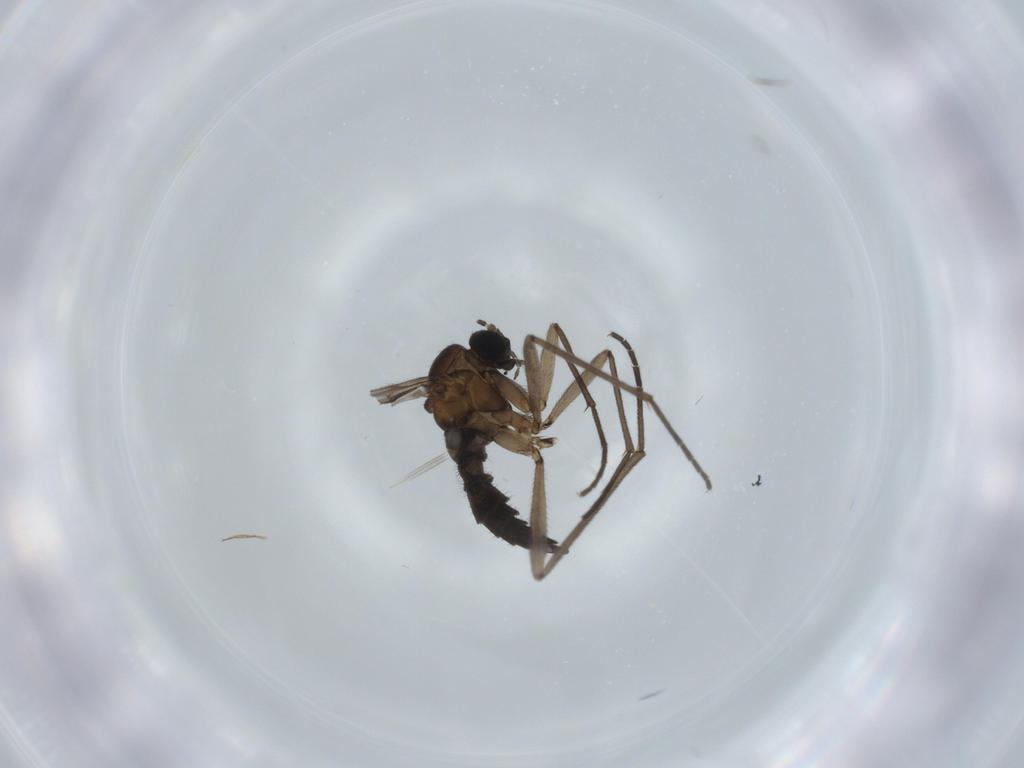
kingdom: Animalia
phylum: Arthropoda
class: Insecta
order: Diptera
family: Sciaridae
